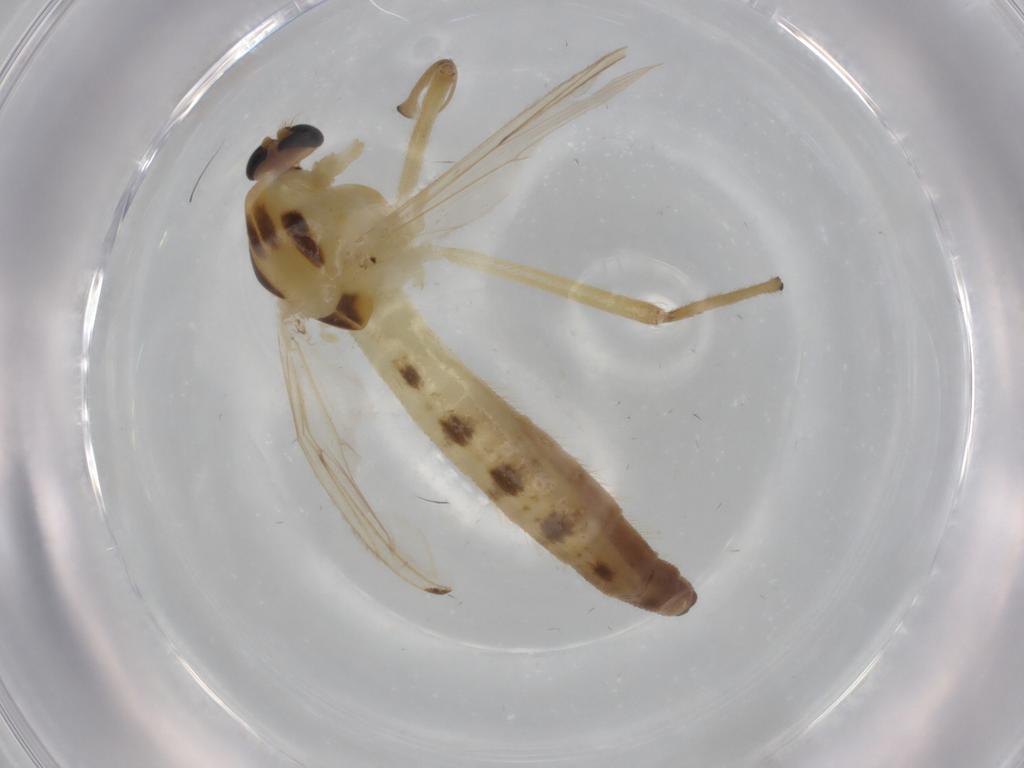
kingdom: Animalia
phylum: Arthropoda
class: Insecta
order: Diptera
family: Chironomidae
